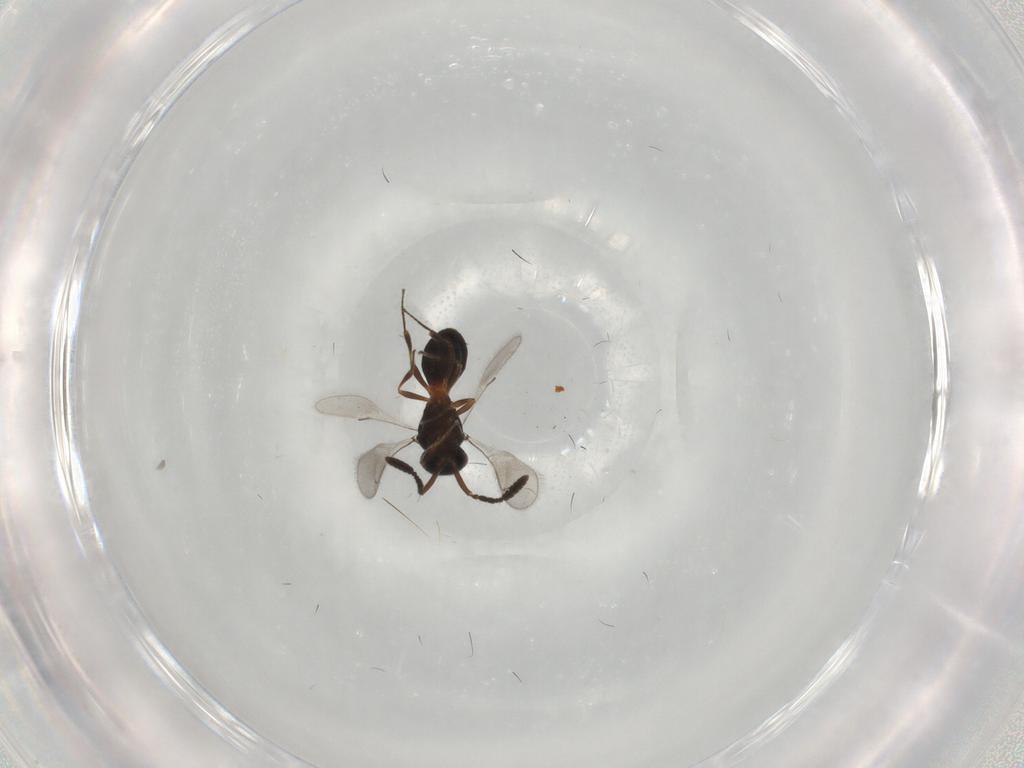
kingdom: Animalia
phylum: Arthropoda
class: Insecta
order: Hymenoptera
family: Scelionidae
